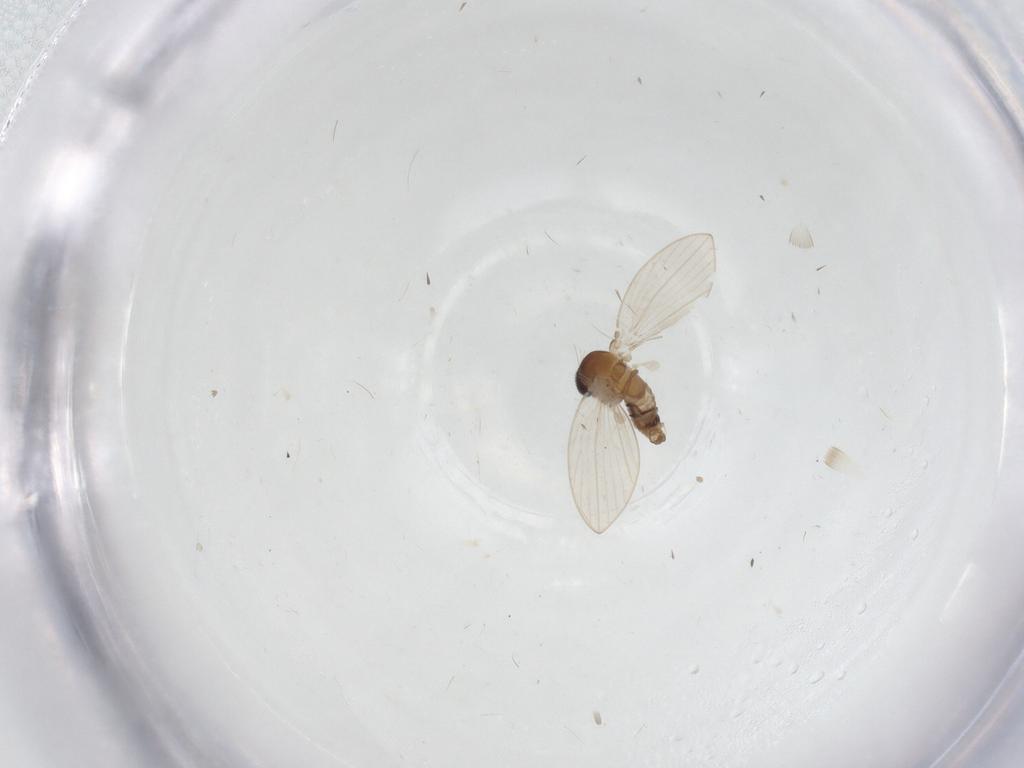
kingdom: Animalia
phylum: Arthropoda
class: Insecta
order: Diptera
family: Psychodidae
